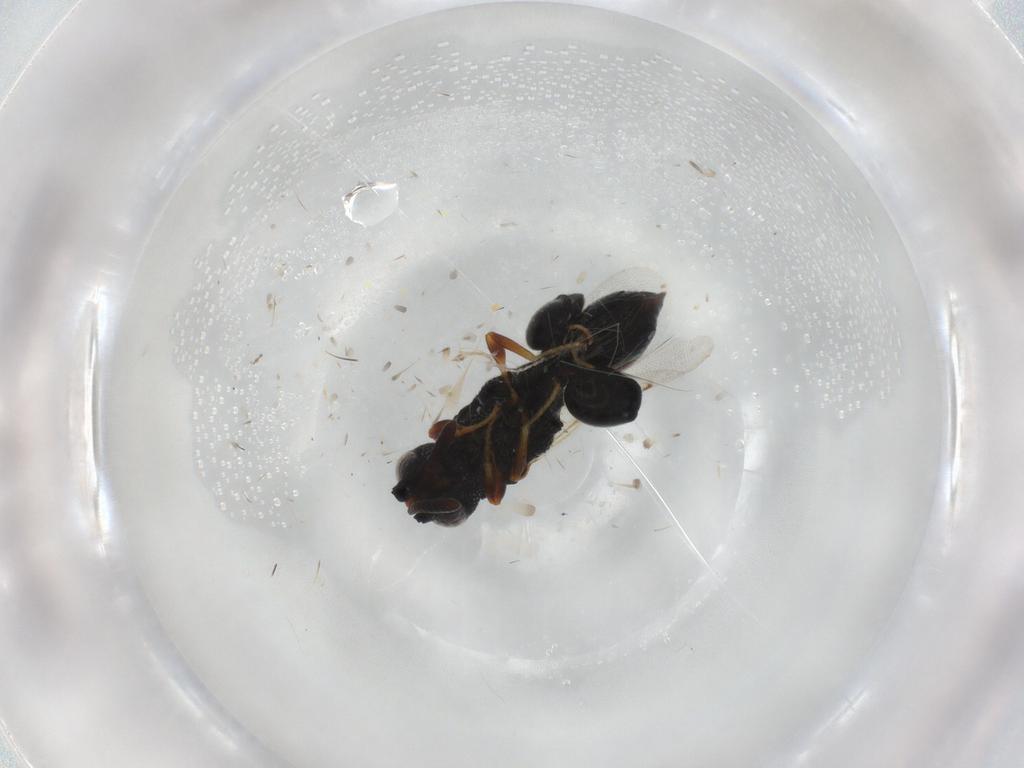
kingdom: Animalia
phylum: Arthropoda
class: Insecta
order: Hymenoptera
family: Chalcididae
